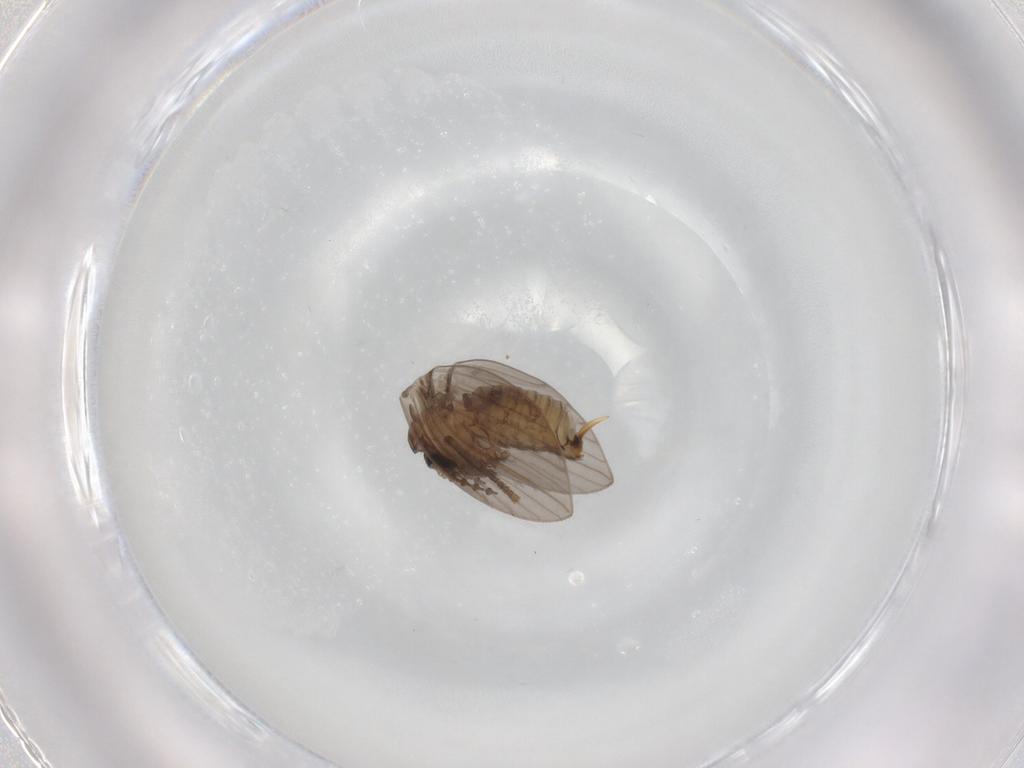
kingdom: Animalia
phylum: Arthropoda
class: Insecta
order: Diptera
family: Psychodidae
